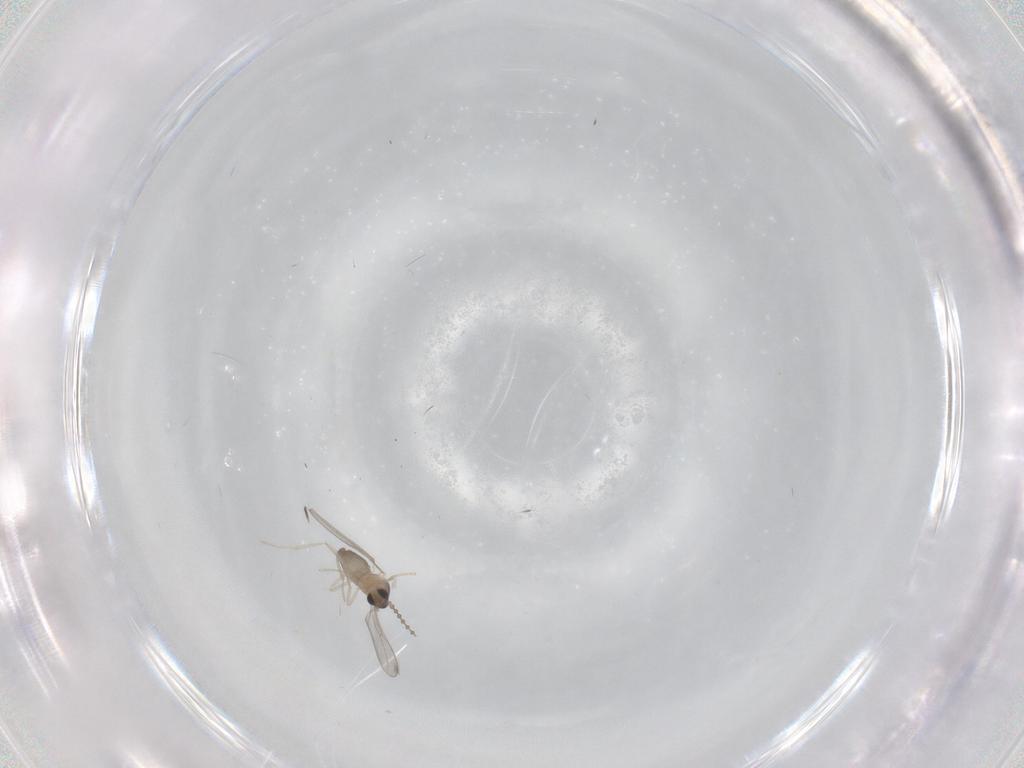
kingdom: Animalia
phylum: Arthropoda
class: Insecta
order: Diptera
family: Cecidomyiidae
